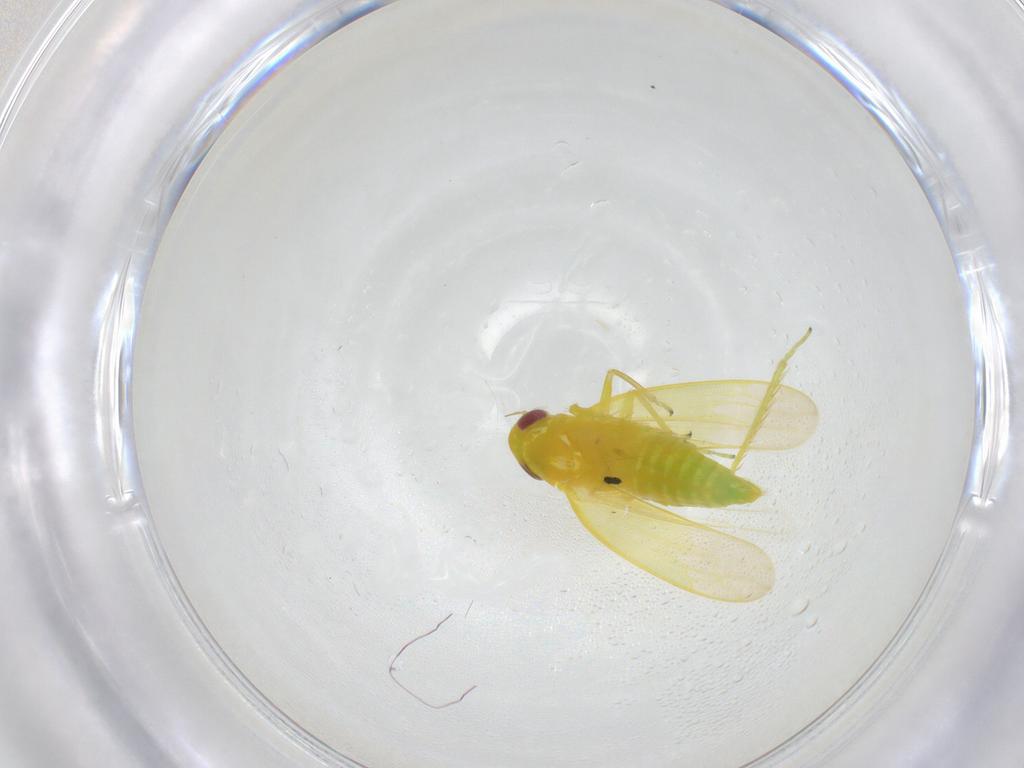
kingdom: Animalia
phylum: Arthropoda
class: Insecta
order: Hemiptera
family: Cicadellidae
